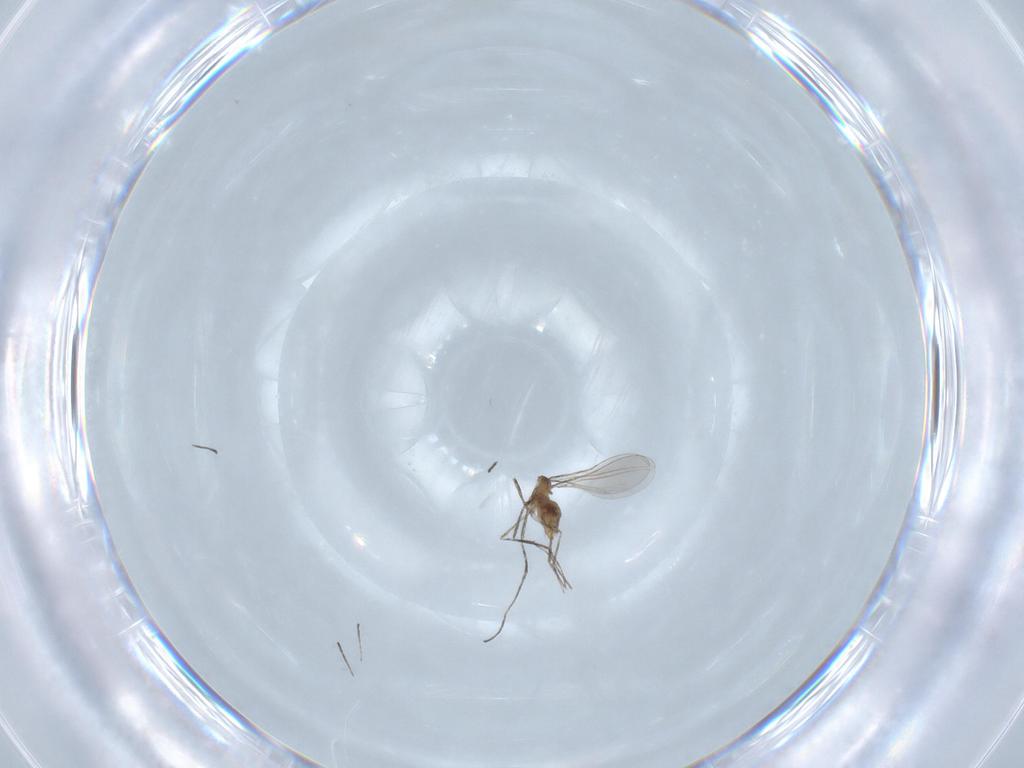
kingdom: Animalia
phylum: Arthropoda
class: Insecta
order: Diptera
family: Cecidomyiidae
